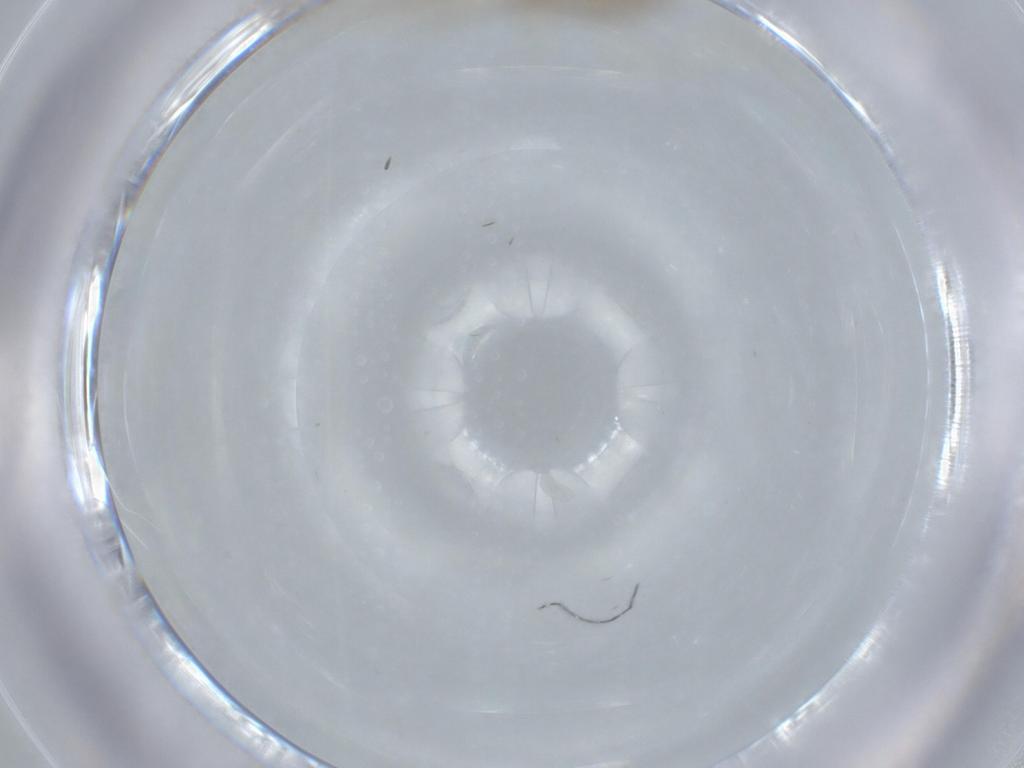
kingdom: Animalia
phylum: Arthropoda
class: Insecta
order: Diptera
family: Cecidomyiidae
